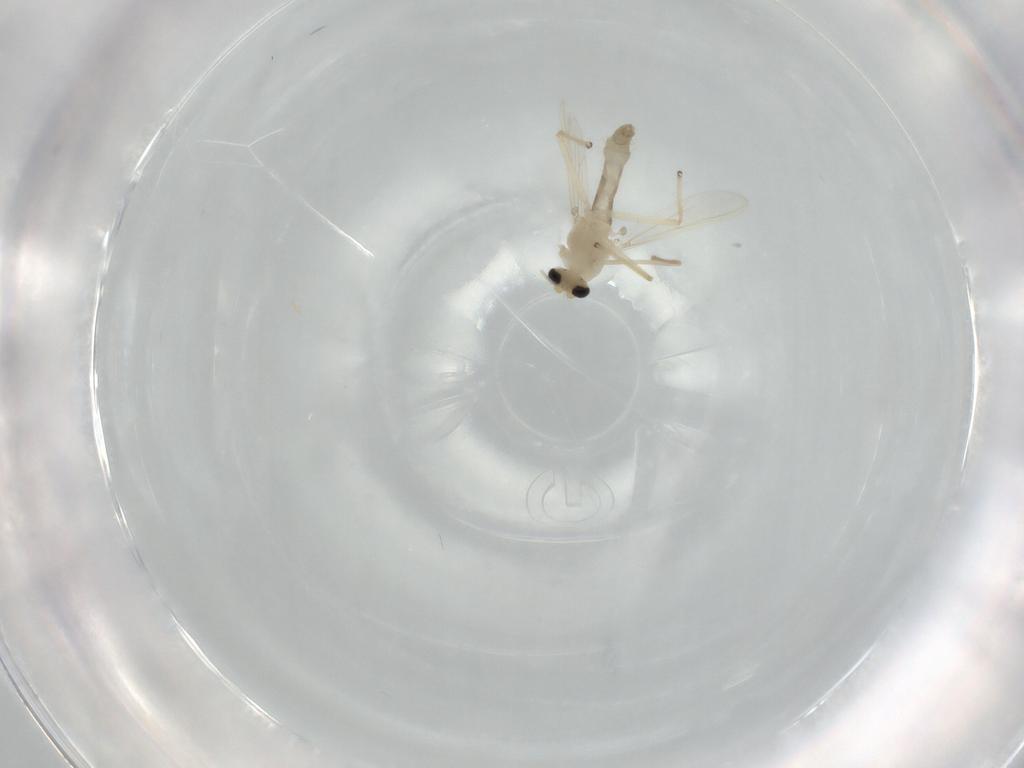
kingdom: Animalia
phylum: Arthropoda
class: Insecta
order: Diptera
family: Chironomidae
